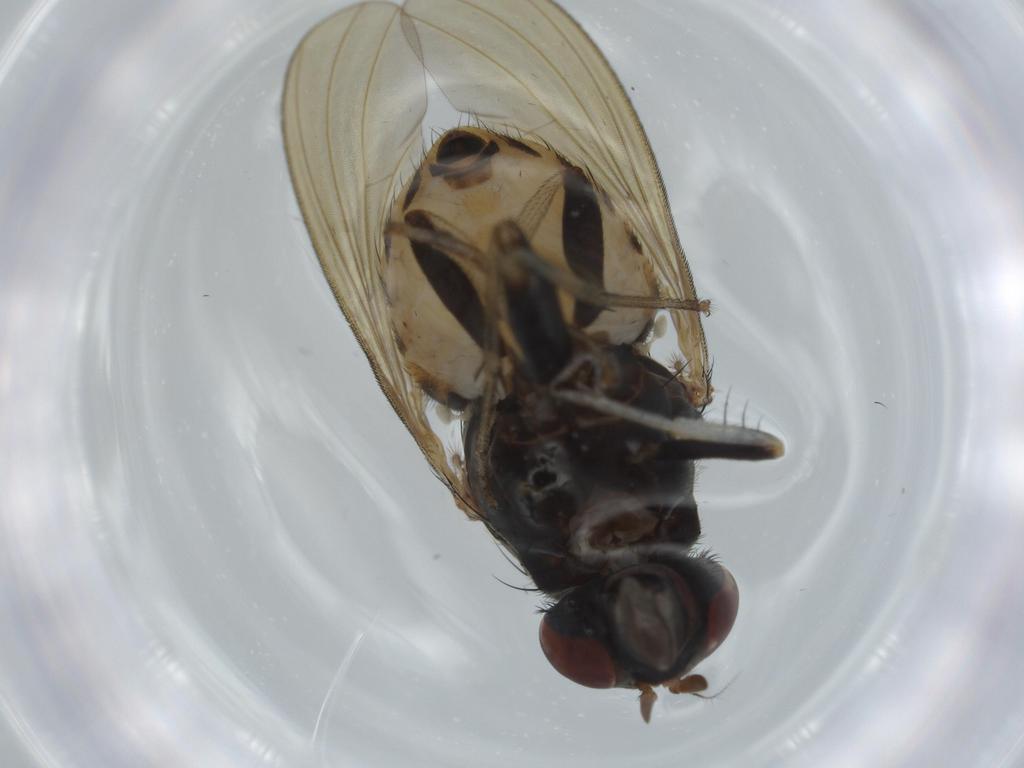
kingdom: Animalia
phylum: Arthropoda
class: Insecta
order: Diptera
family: Lauxaniidae
